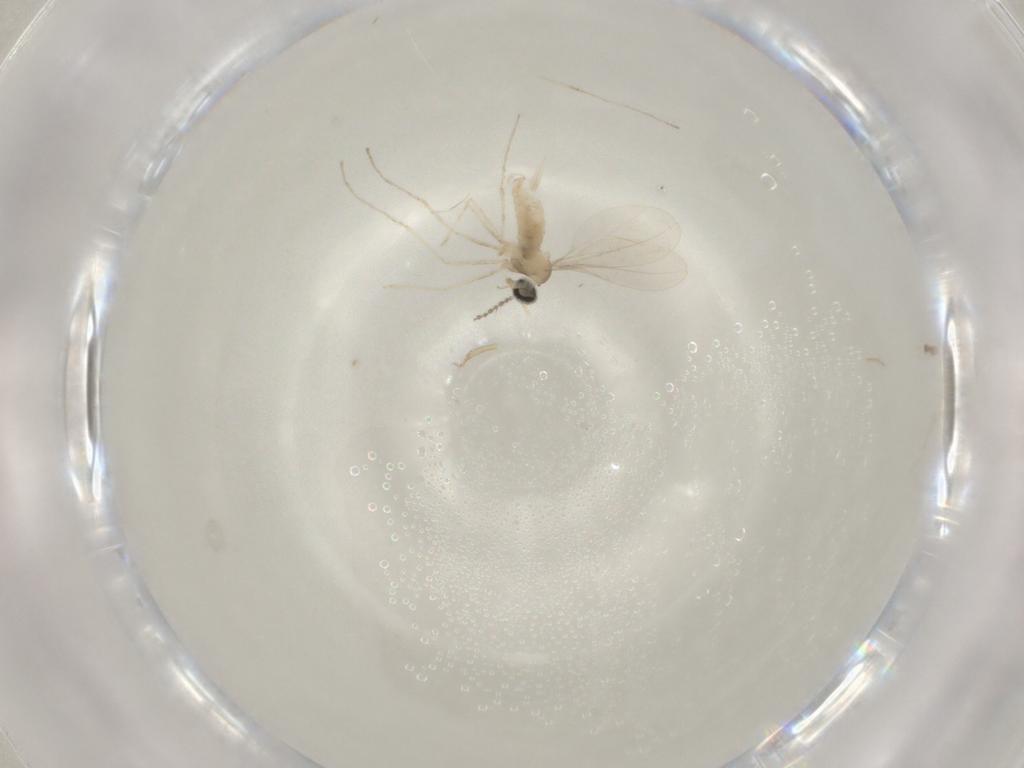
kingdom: Animalia
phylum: Arthropoda
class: Insecta
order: Diptera
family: Cecidomyiidae
